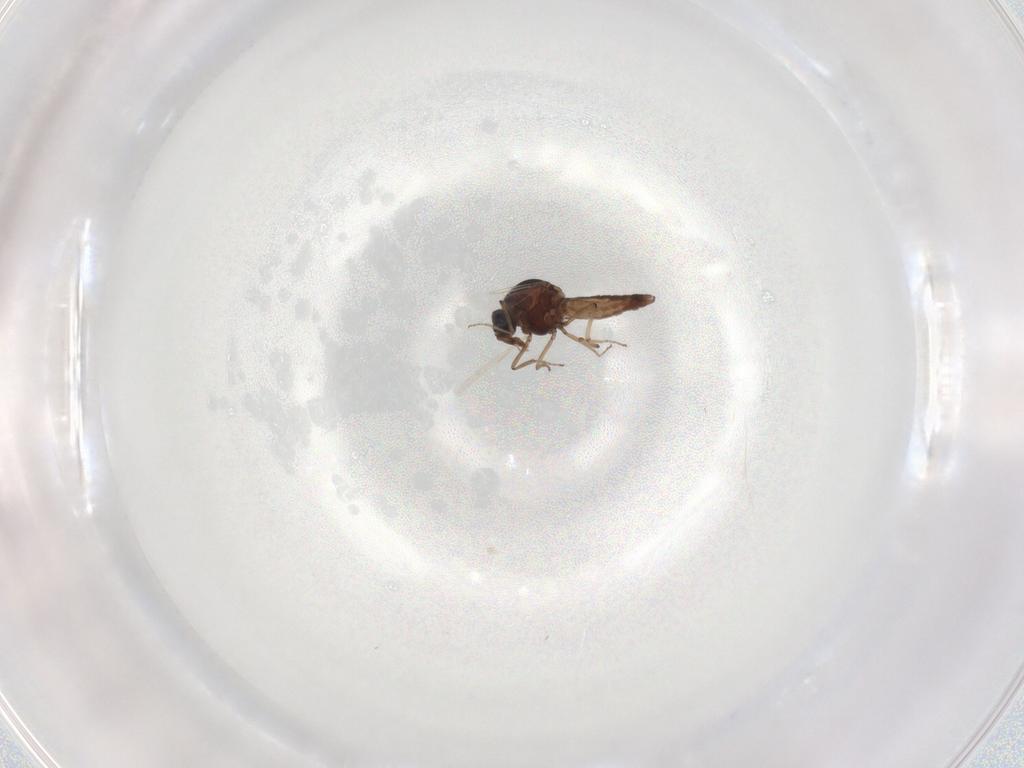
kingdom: Animalia
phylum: Arthropoda
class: Insecta
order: Diptera
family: Ceratopogonidae
